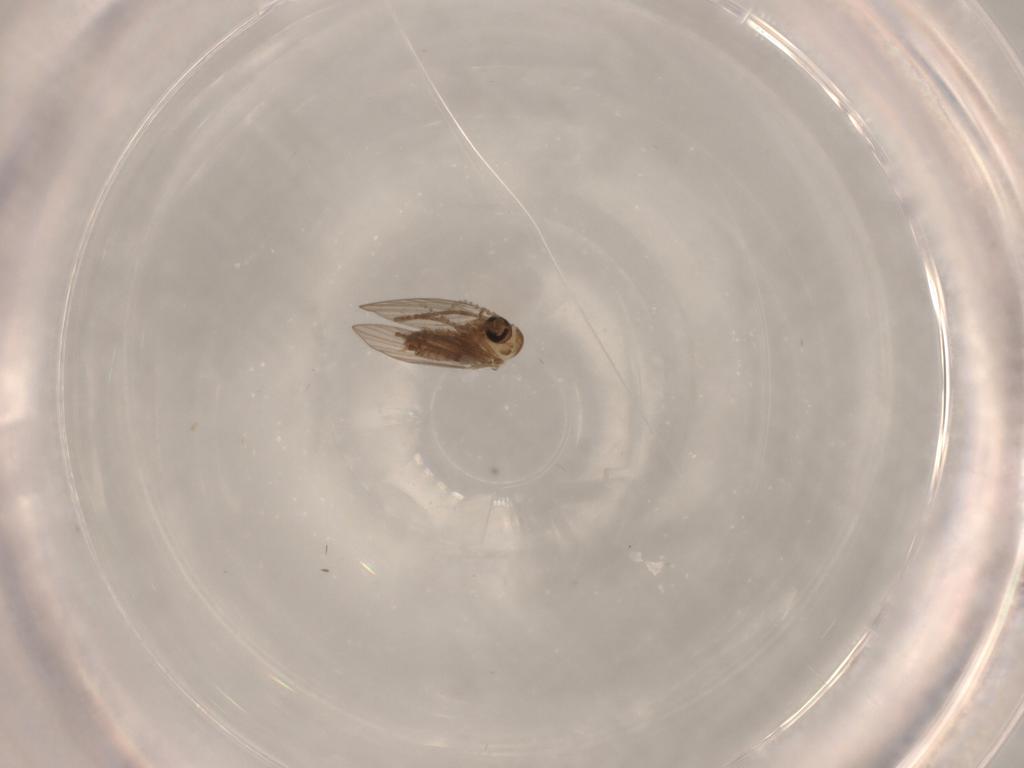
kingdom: Animalia
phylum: Arthropoda
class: Insecta
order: Diptera
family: Psychodidae
